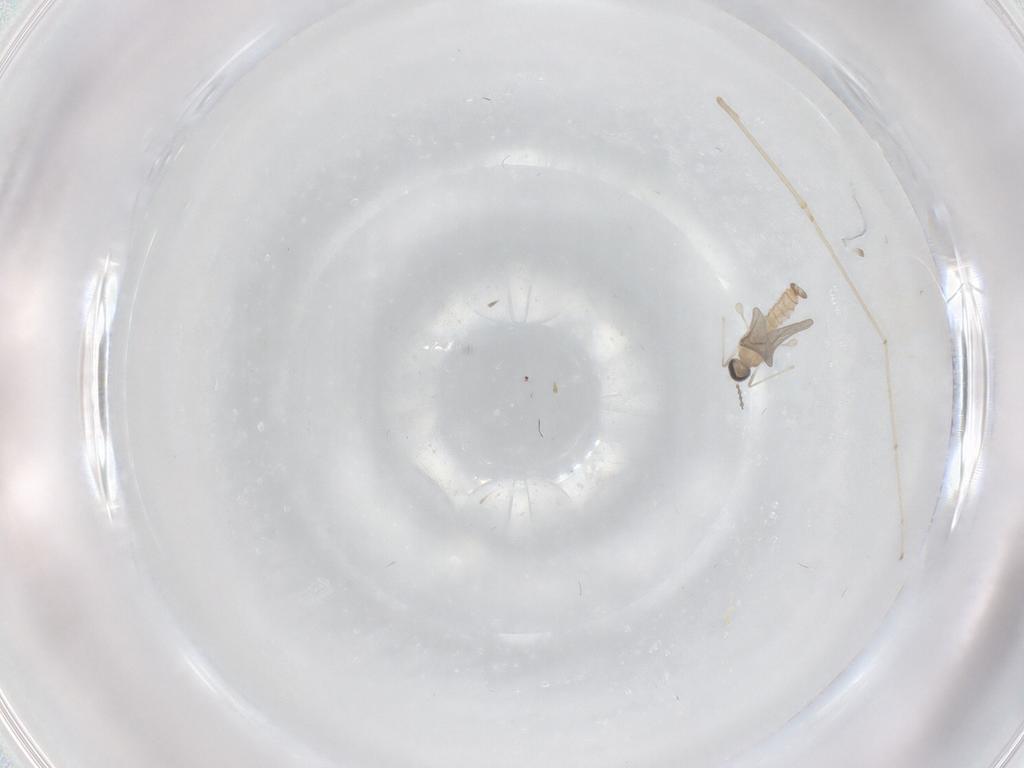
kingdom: Animalia
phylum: Arthropoda
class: Insecta
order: Diptera
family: Cecidomyiidae
